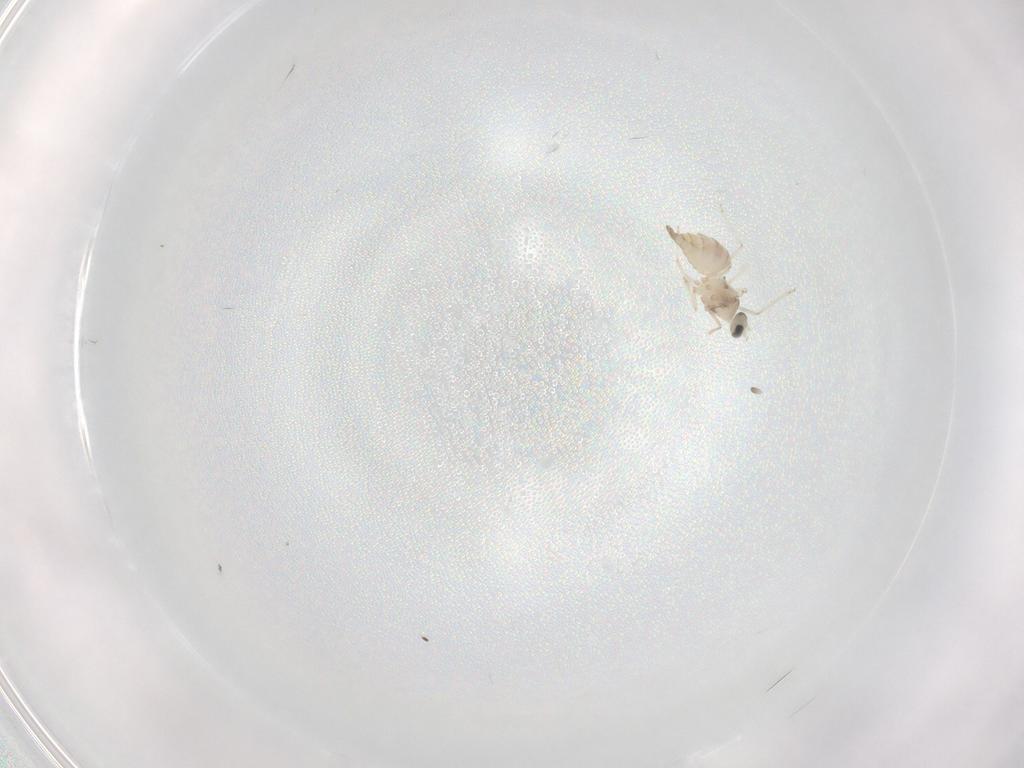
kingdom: Animalia
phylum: Arthropoda
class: Insecta
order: Diptera
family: Cecidomyiidae
